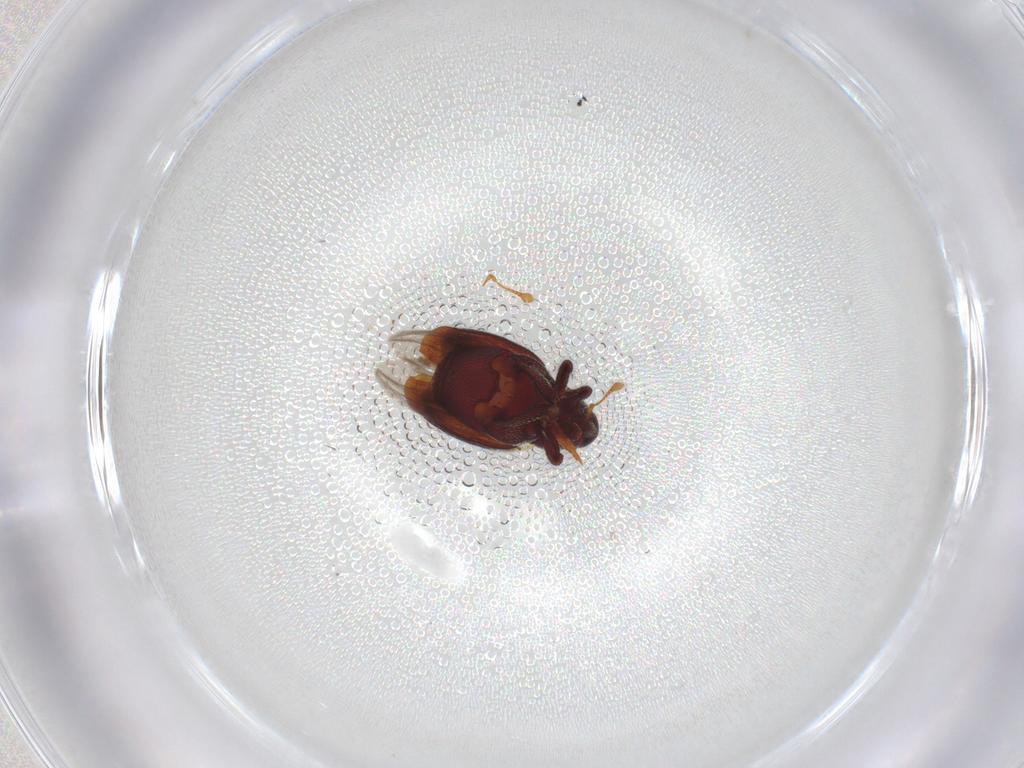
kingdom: Animalia
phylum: Arthropoda
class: Insecta
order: Coleoptera
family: Curculionidae
